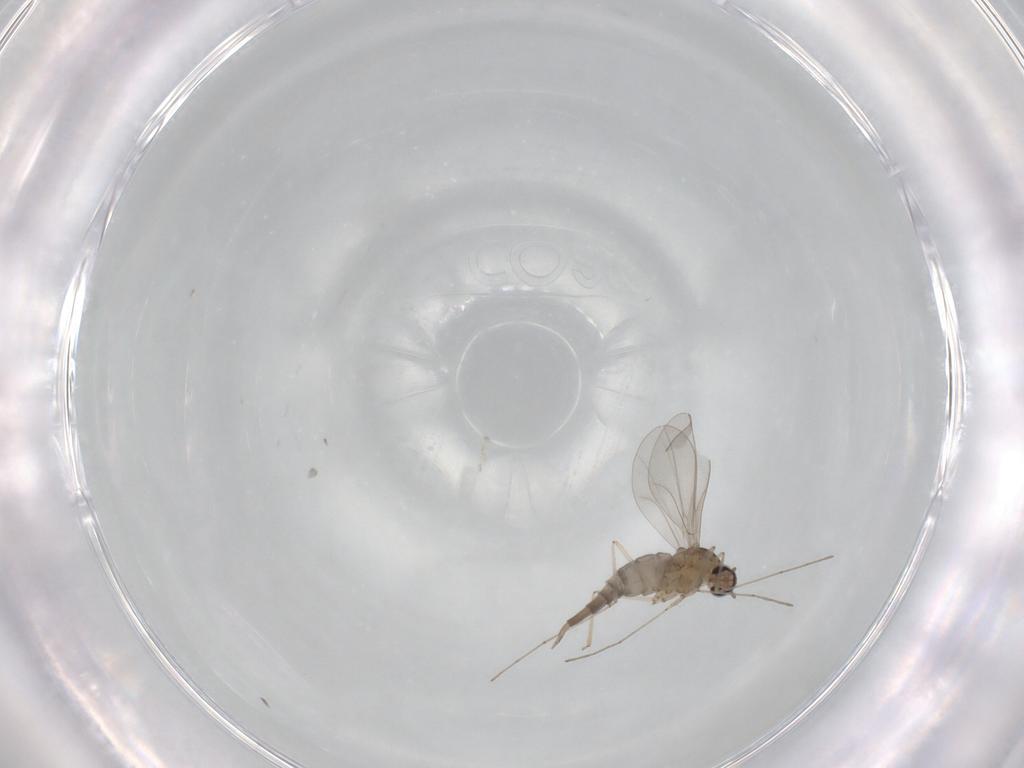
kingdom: Animalia
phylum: Arthropoda
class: Insecta
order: Diptera
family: Cecidomyiidae
